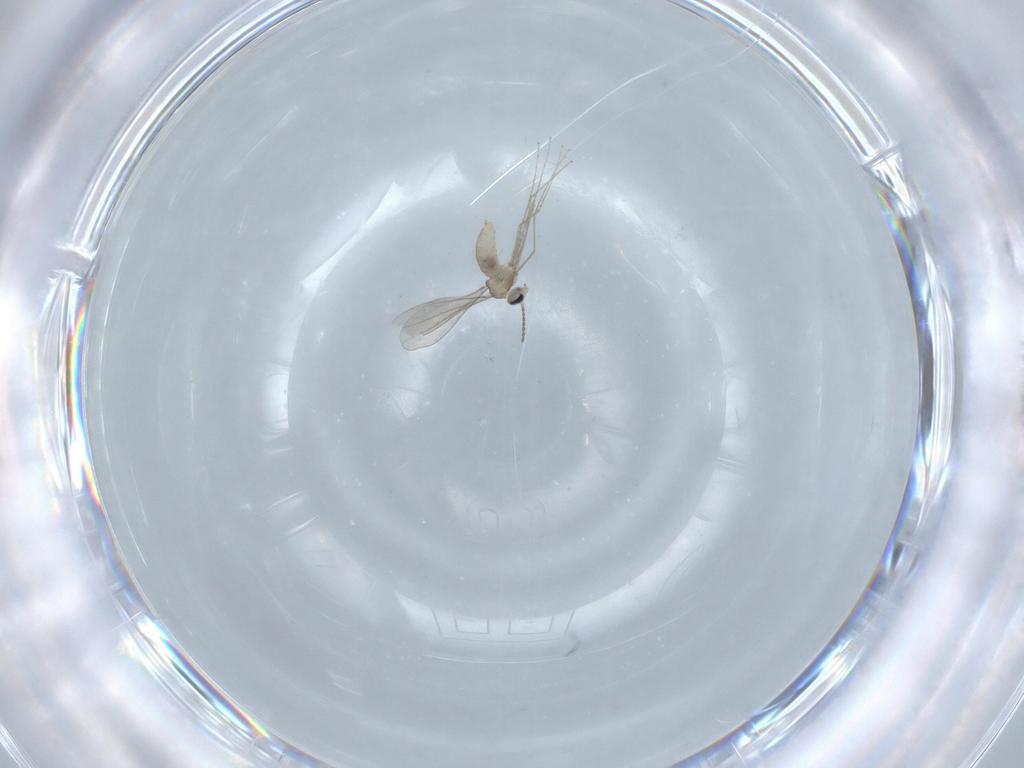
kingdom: Animalia
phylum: Arthropoda
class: Insecta
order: Diptera
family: Cecidomyiidae
